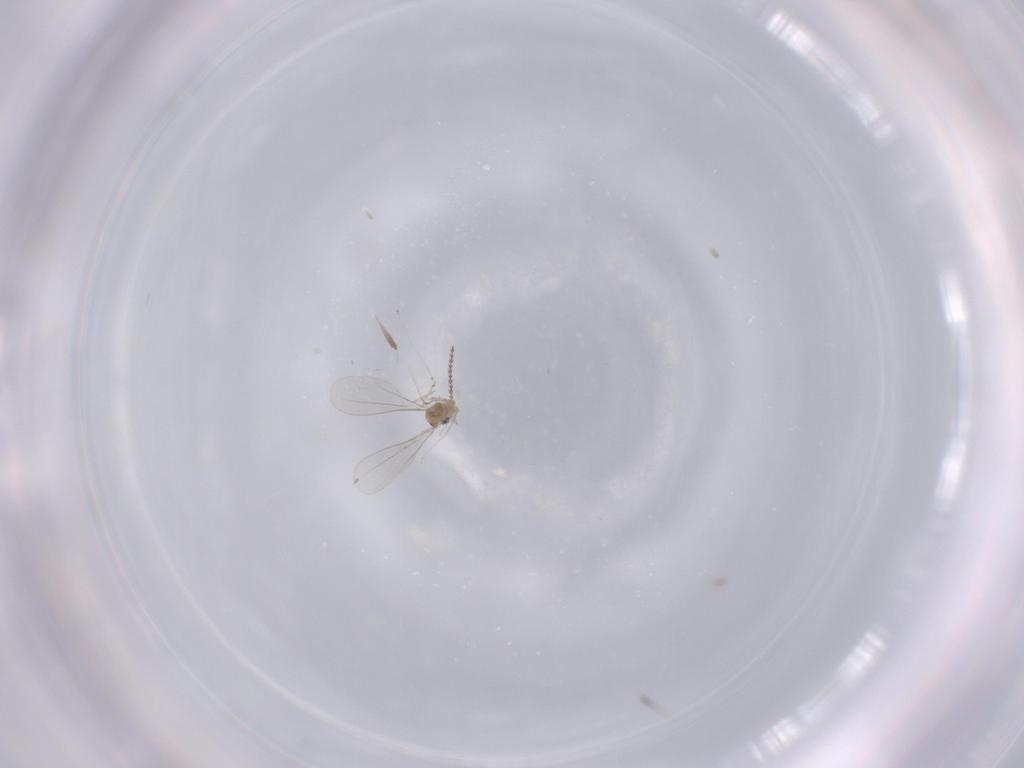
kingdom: Animalia
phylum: Arthropoda
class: Insecta
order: Diptera
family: Cecidomyiidae
